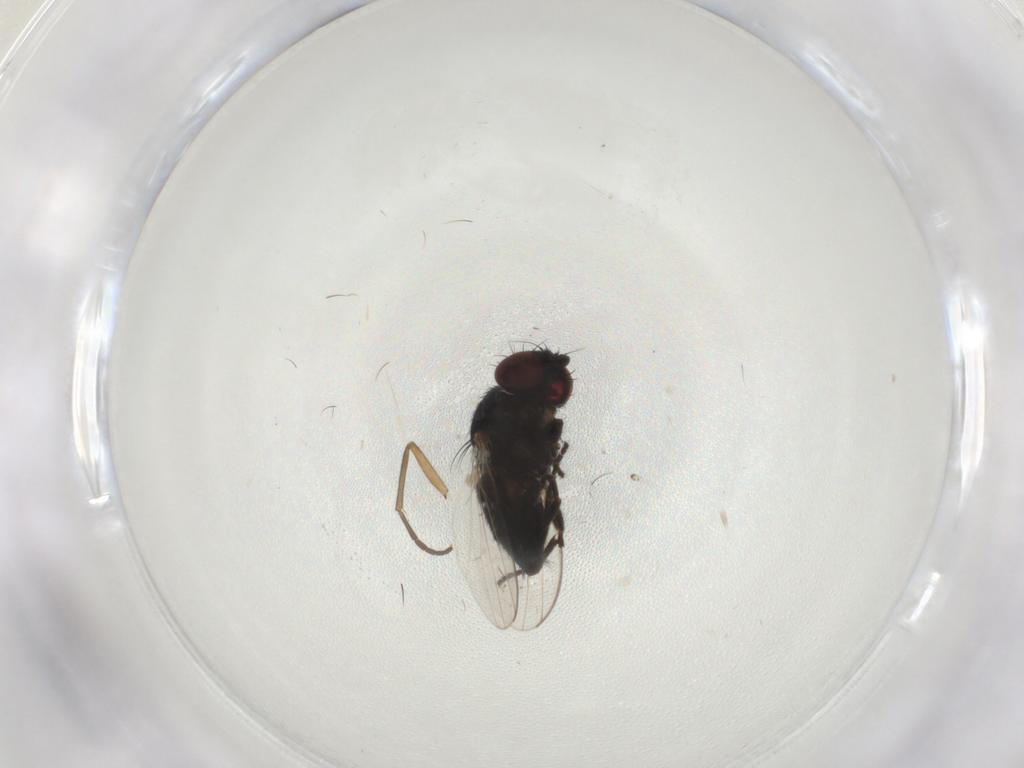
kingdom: Animalia
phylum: Arthropoda
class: Insecta
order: Diptera
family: Chloropidae
